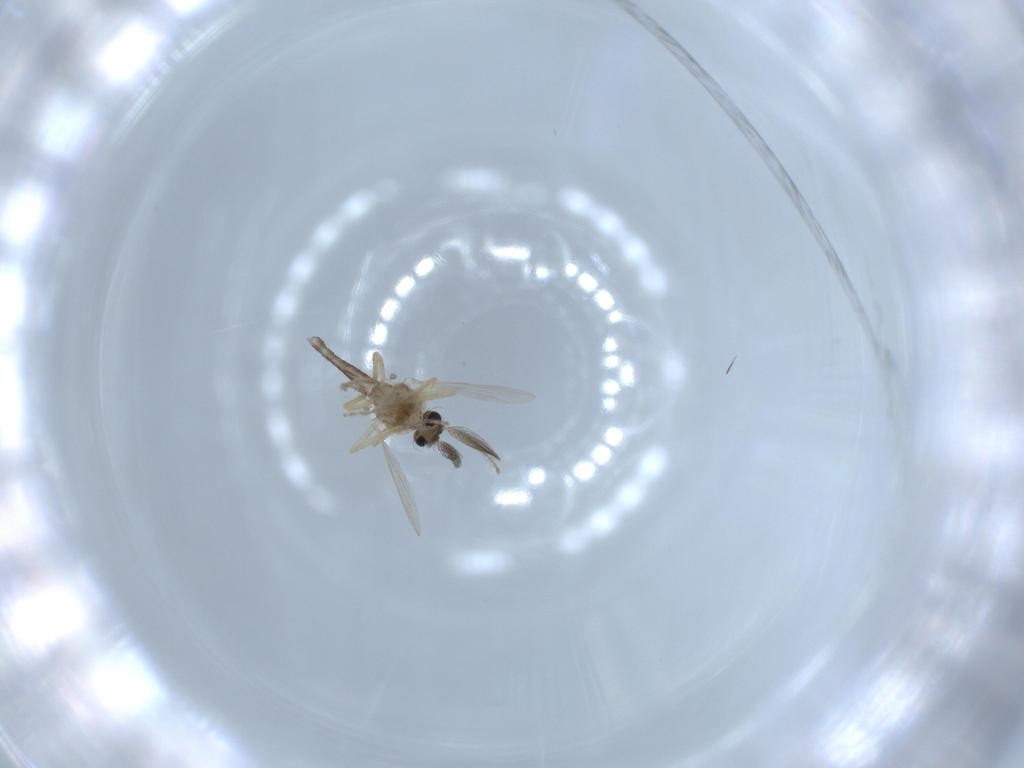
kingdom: Animalia
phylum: Arthropoda
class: Insecta
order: Diptera
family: Ceratopogonidae
